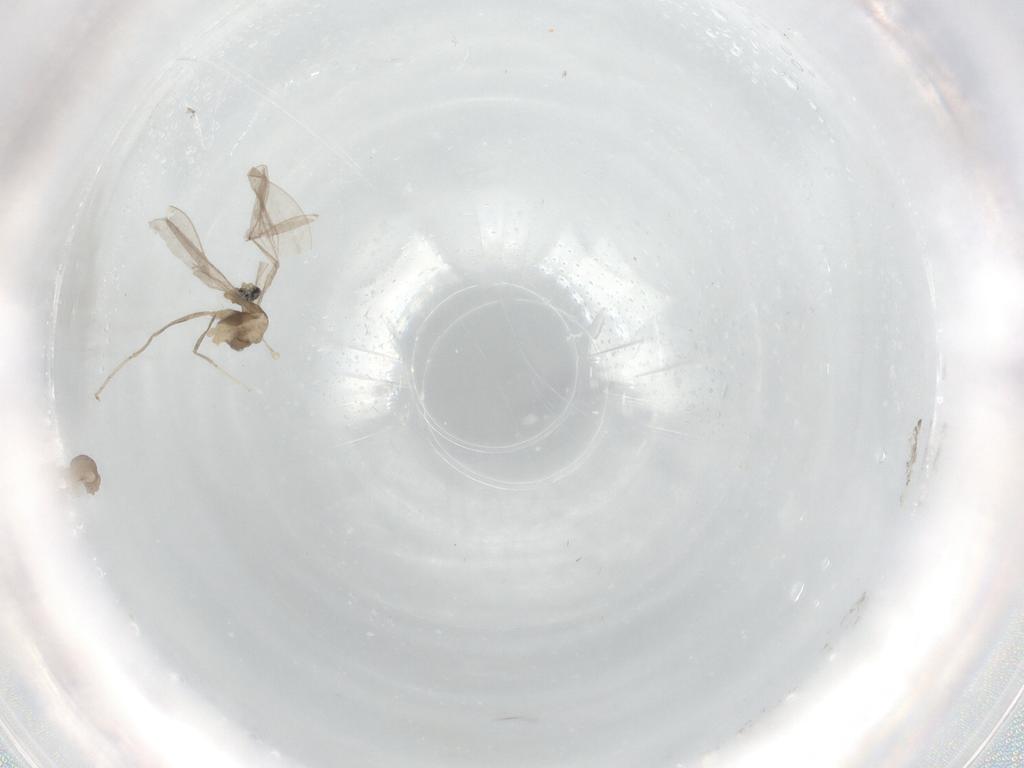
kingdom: Animalia
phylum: Arthropoda
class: Insecta
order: Diptera
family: Cecidomyiidae
